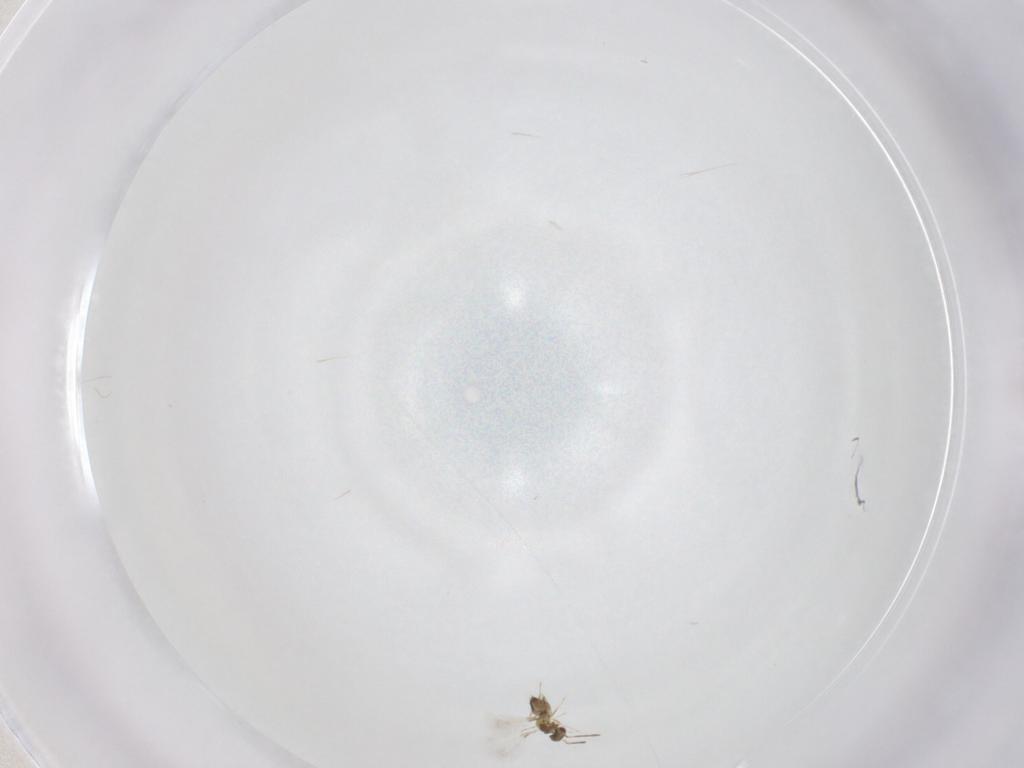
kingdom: Animalia
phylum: Arthropoda
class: Insecta
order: Hymenoptera
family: Mymaridae
